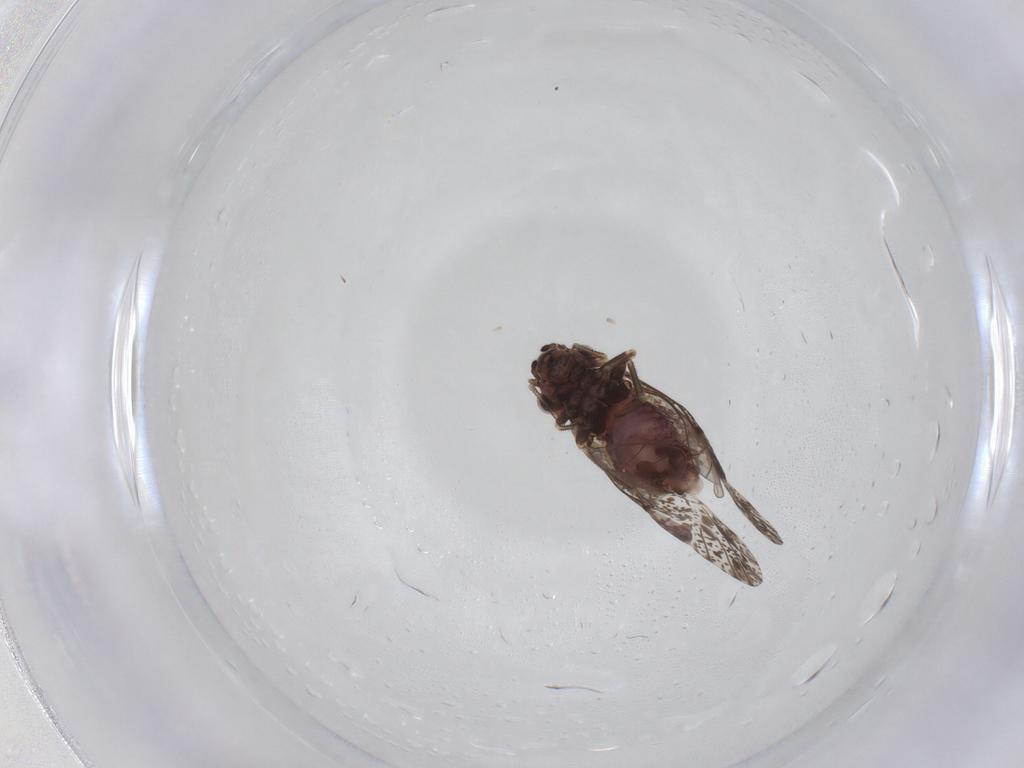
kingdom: Animalia
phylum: Arthropoda
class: Insecta
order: Psocodea
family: Psocidae
